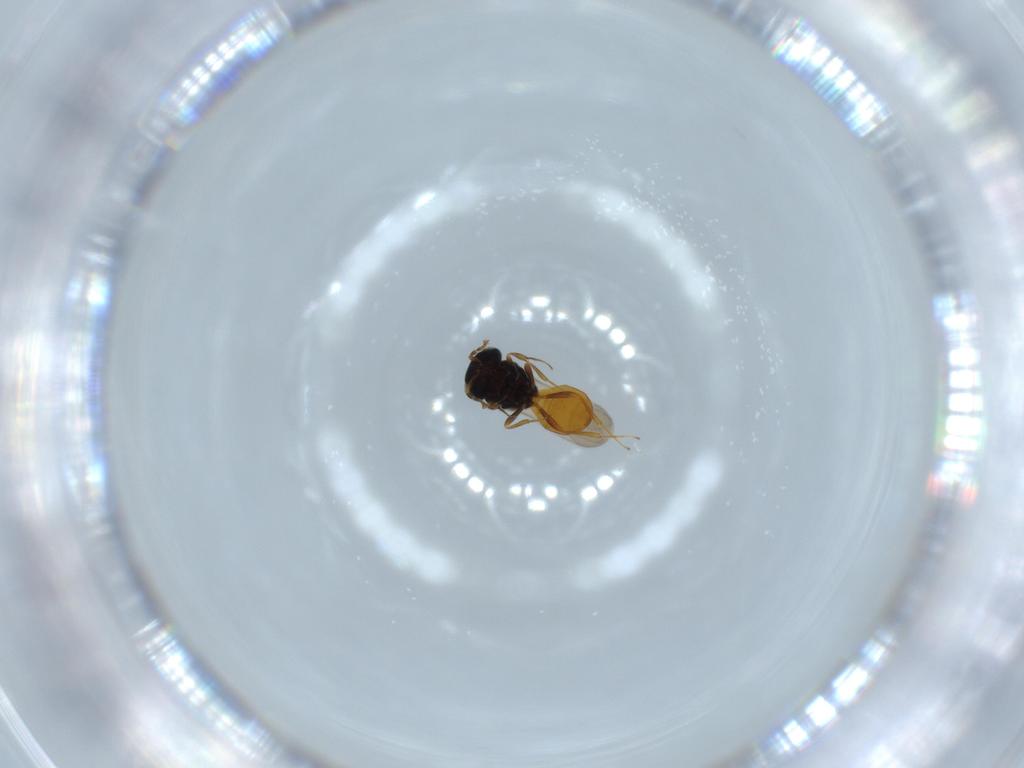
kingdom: Animalia
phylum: Arthropoda
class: Insecta
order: Hymenoptera
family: Scelionidae
